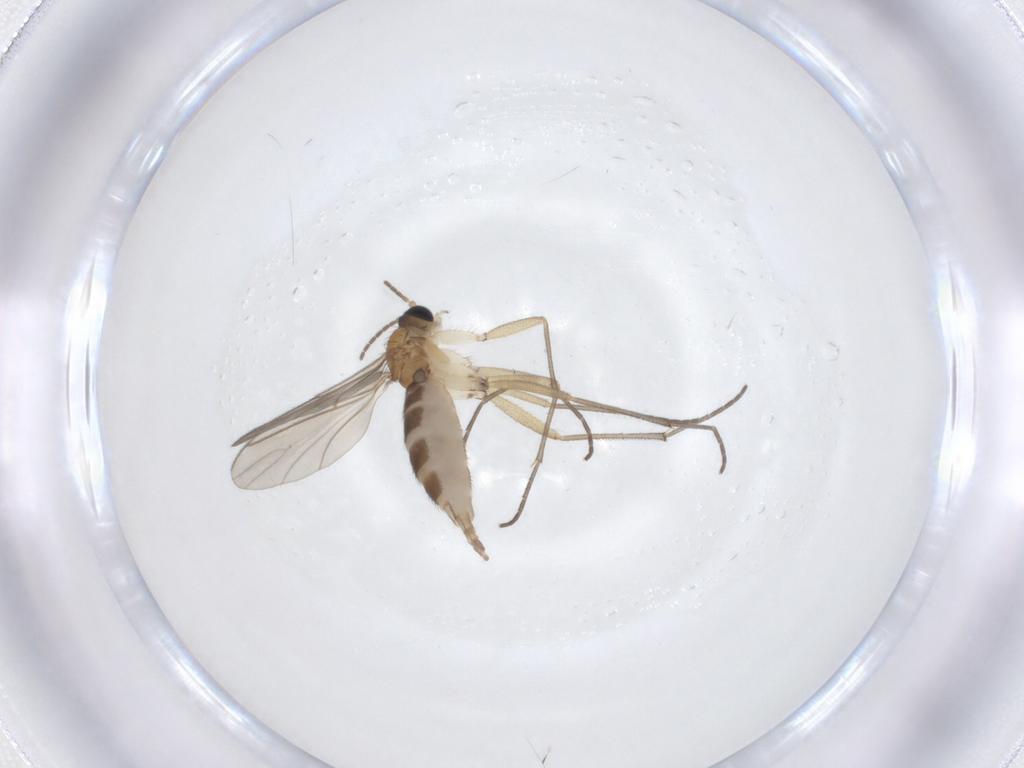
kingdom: Animalia
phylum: Arthropoda
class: Insecta
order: Diptera
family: Sciaridae
